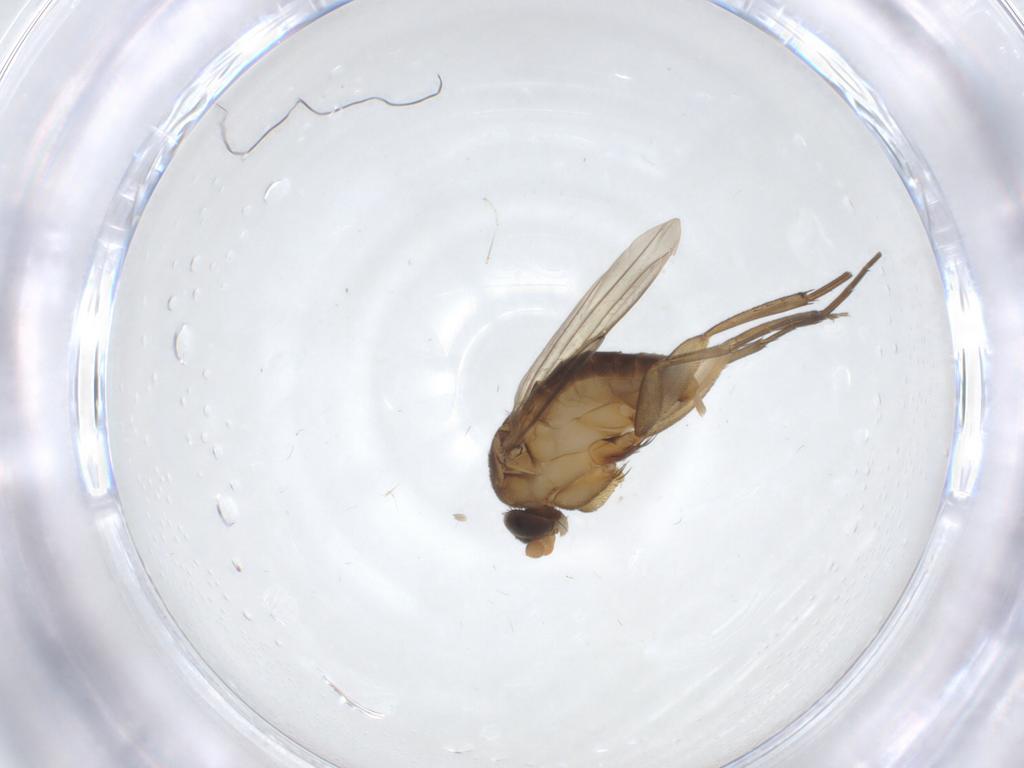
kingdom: Animalia
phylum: Arthropoda
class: Insecta
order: Diptera
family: Phoridae
